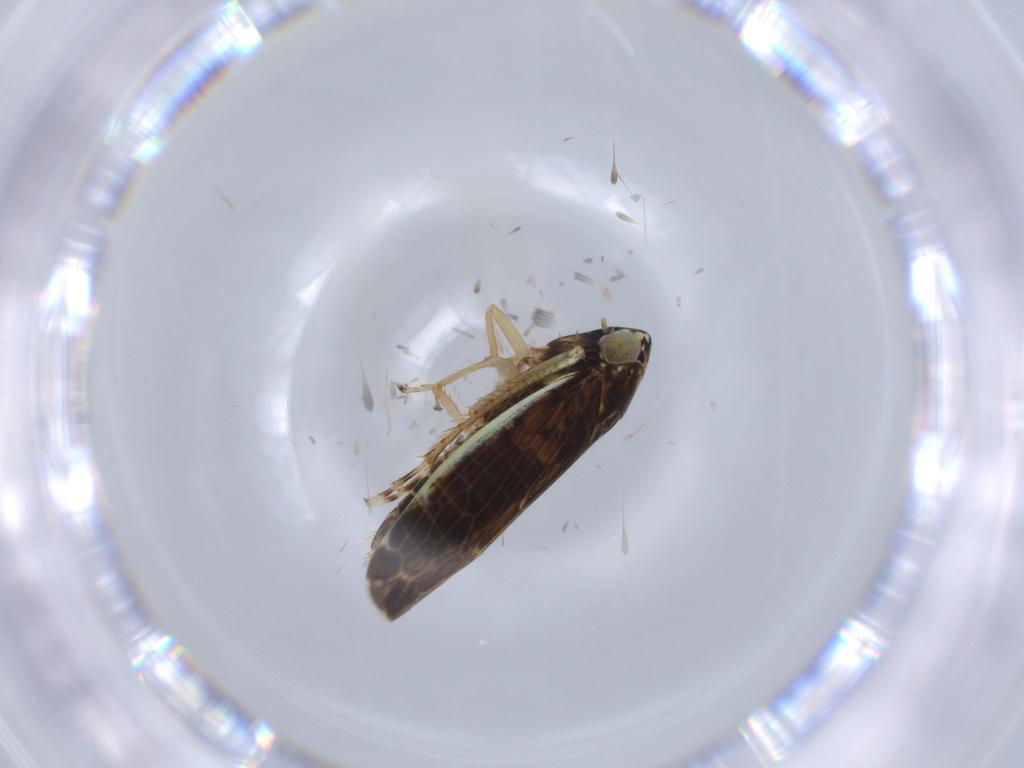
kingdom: Animalia
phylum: Arthropoda
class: Insecta
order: Hemiptera
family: Cicadellidae
